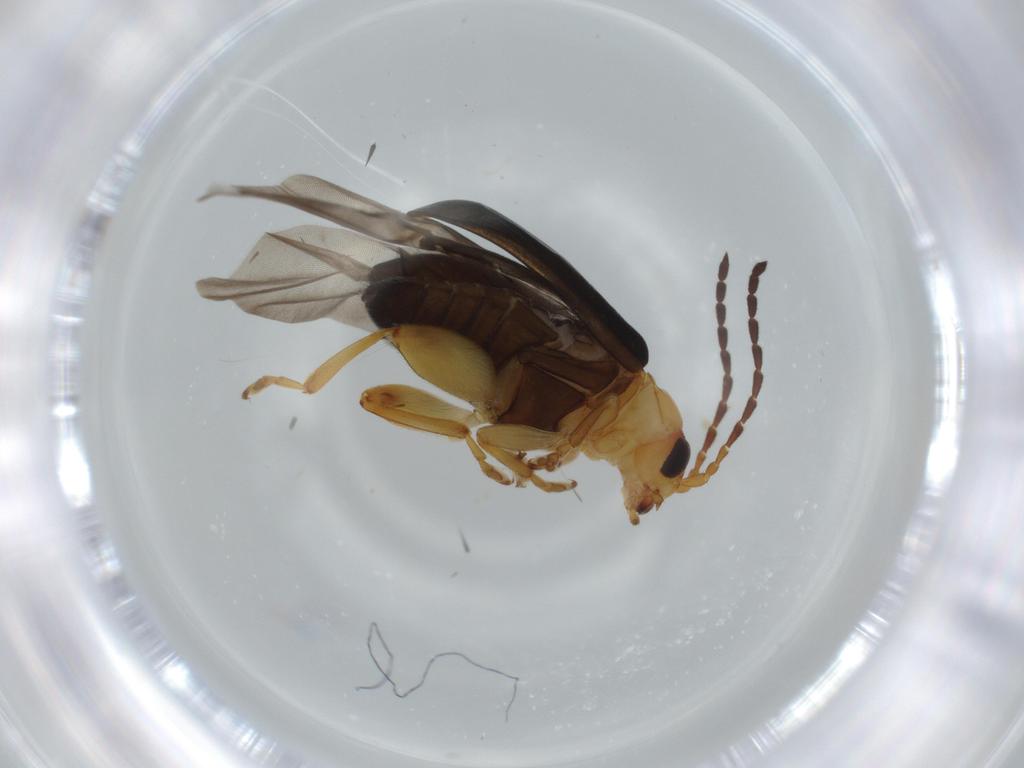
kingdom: Animalia
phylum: Arthropoda
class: Insecta
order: Coleoptera
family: Chrysomelidae
